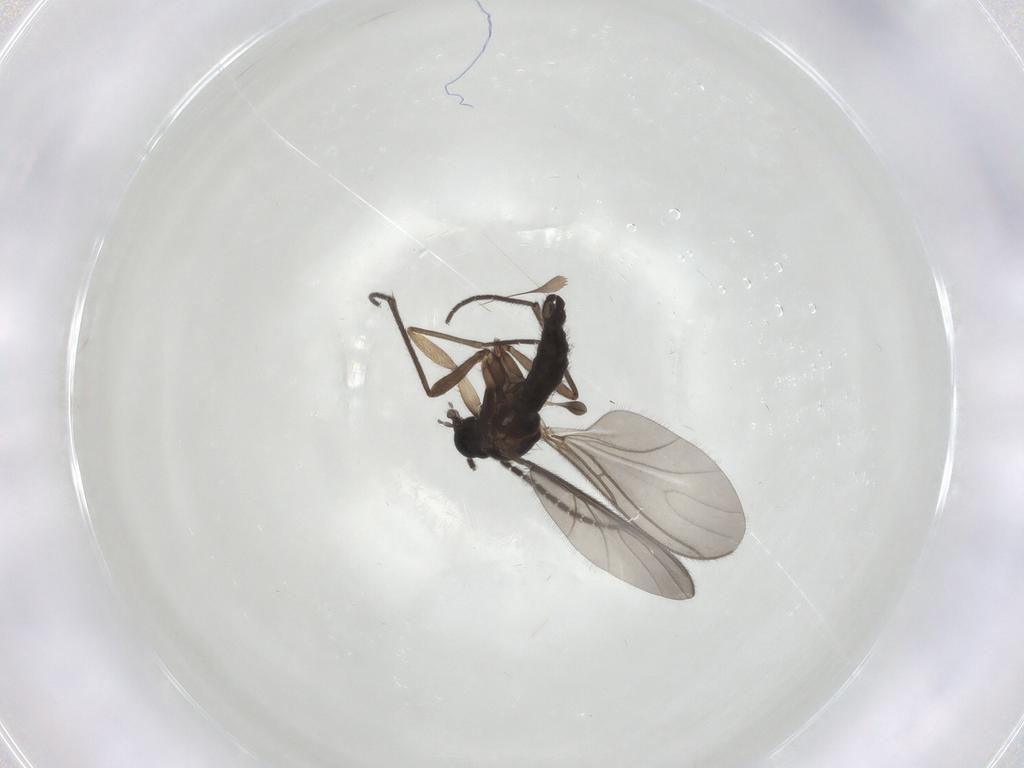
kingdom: Animalia
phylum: Arthropoda
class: Insecta
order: Diptera
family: Sciaridae
